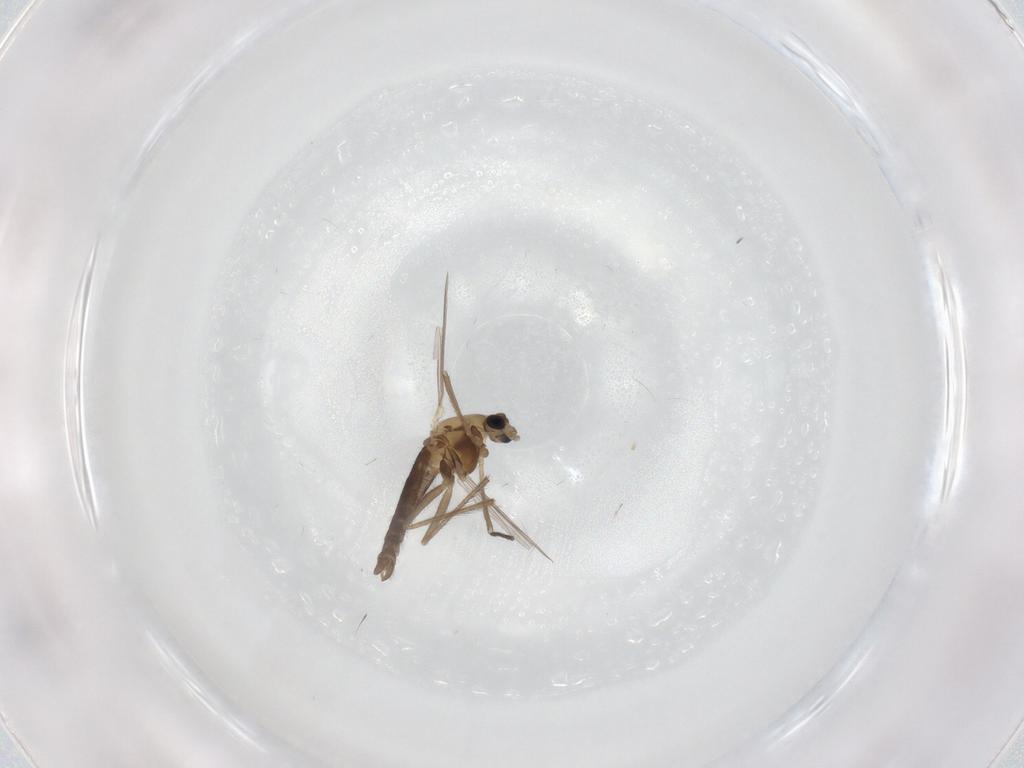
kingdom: Animalia
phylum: Arthropoda
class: Insecta
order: Diptera
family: Chironomidae
